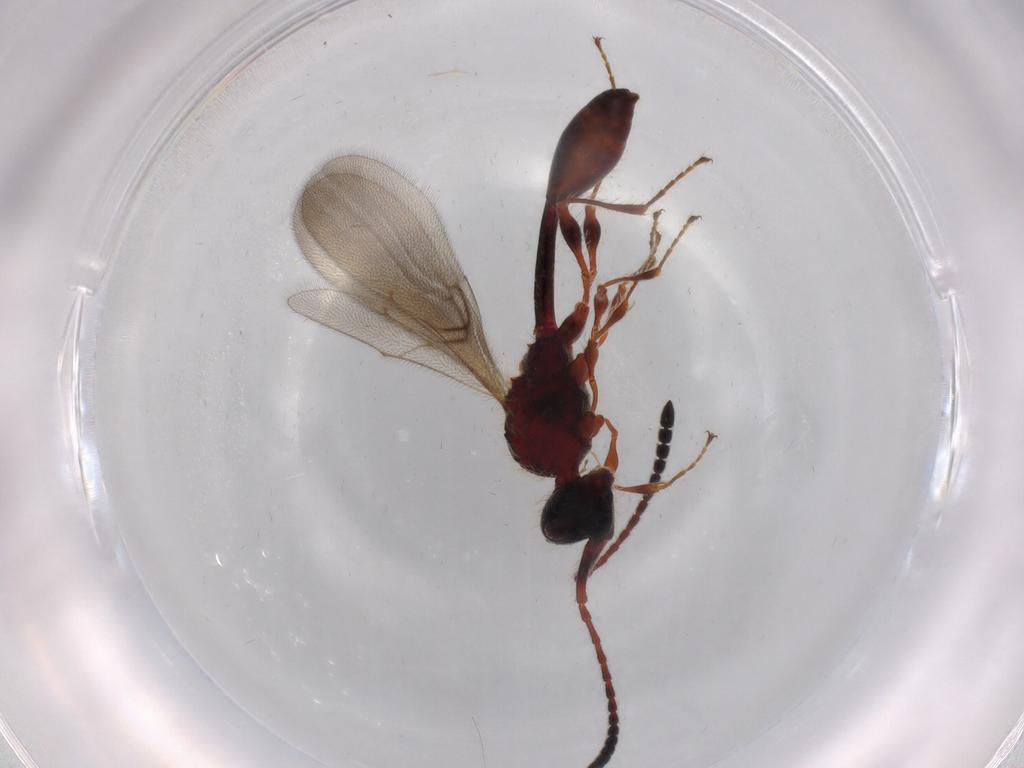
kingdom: Animalia
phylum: Arthropoda
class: Insecta
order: Hymenoptera
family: Diapriidae
